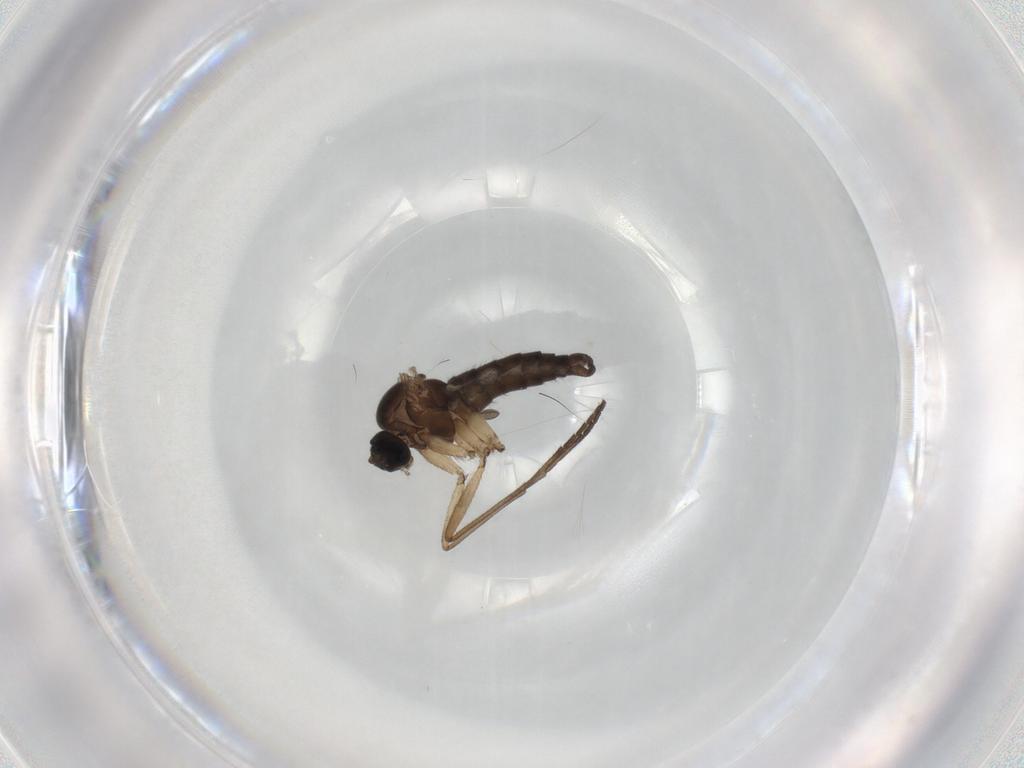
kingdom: Animalia
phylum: Arthropoda
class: Insecta
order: Diptera
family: Sciaridae
